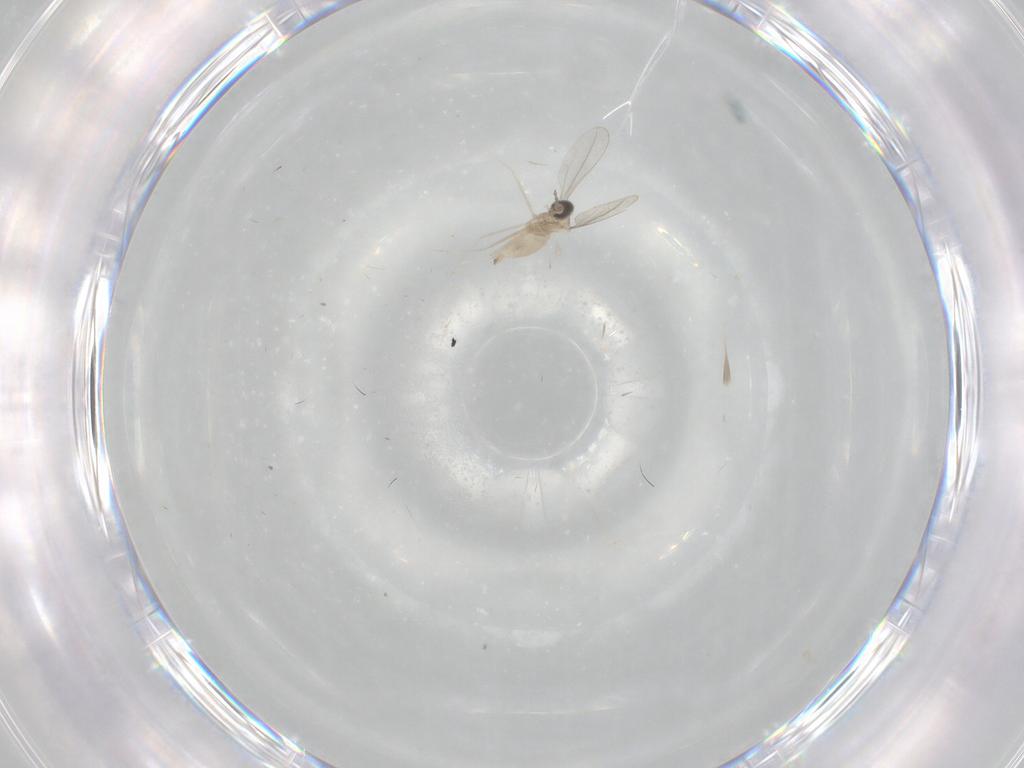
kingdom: Animalia
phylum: Arthropoda
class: Insecta
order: Diptera
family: Cecidomyiidae
